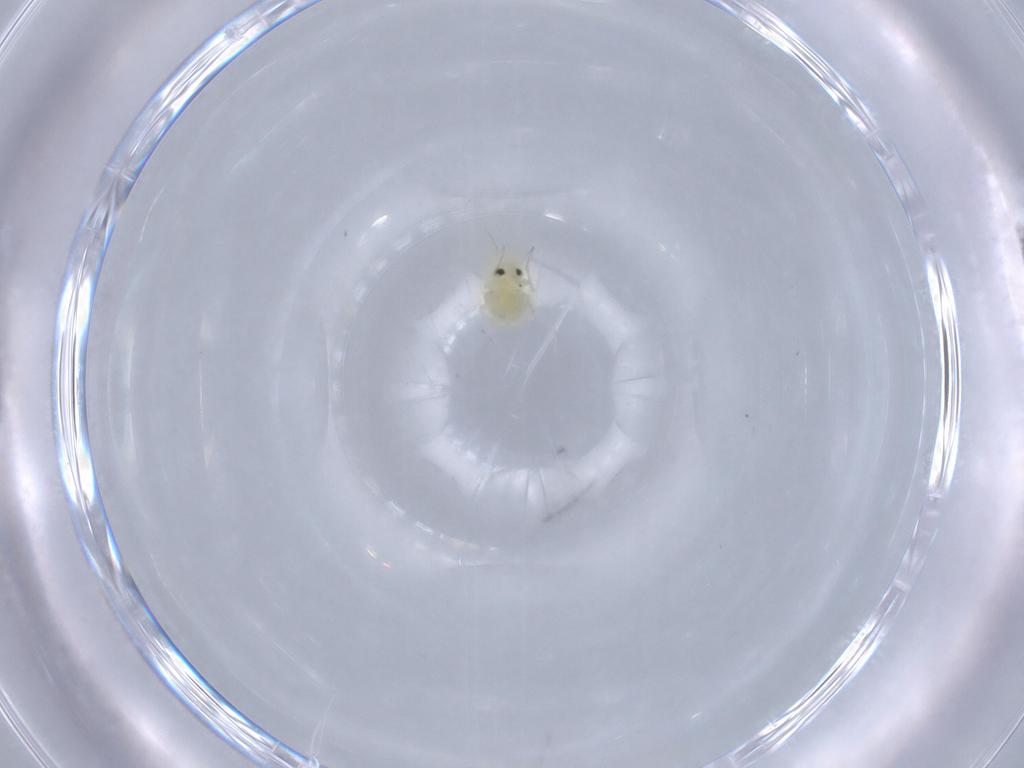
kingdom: Animalia
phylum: Arthropoda
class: Insecta
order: Hemiptera
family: Aleyrodidae
